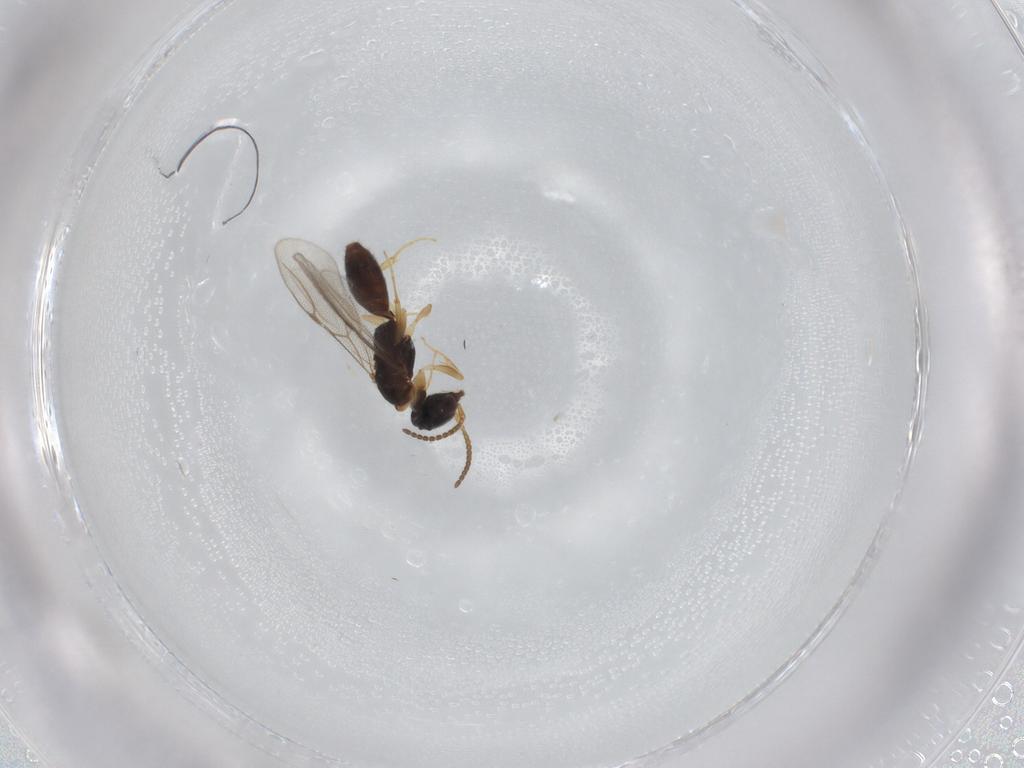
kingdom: Animalia
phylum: Arthropoda
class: Insecta
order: Hymenoptera
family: Bethylidae
